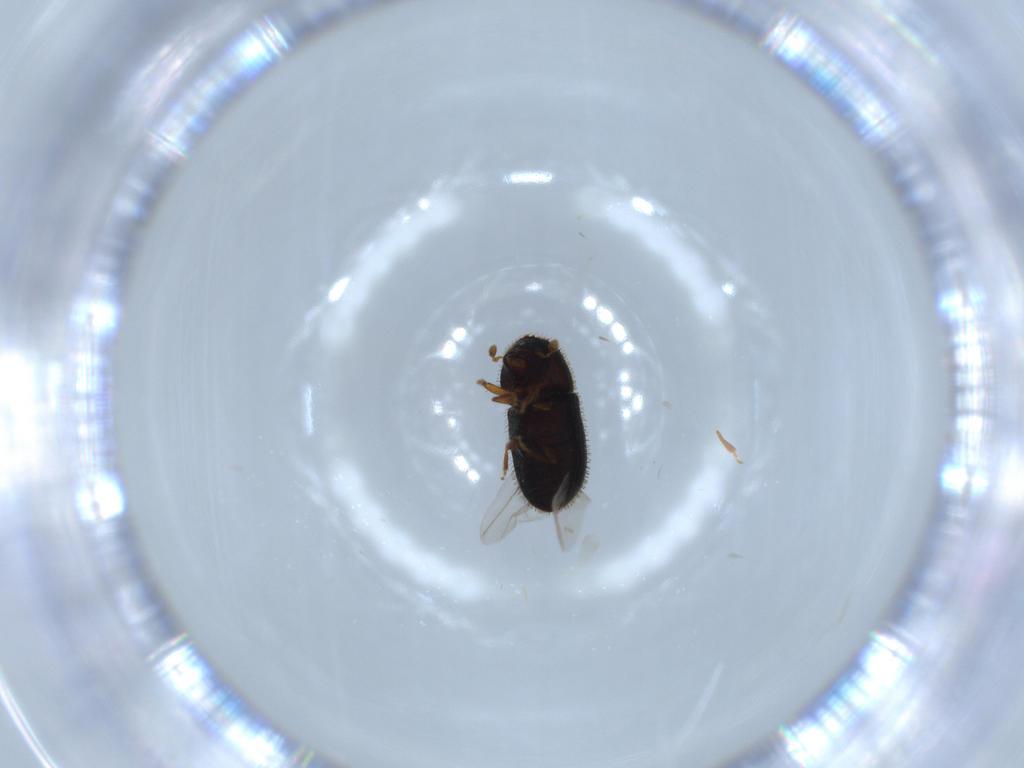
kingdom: Animalia
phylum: Arthropoda
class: Insecta
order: Coleoptera
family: Curculionidae
